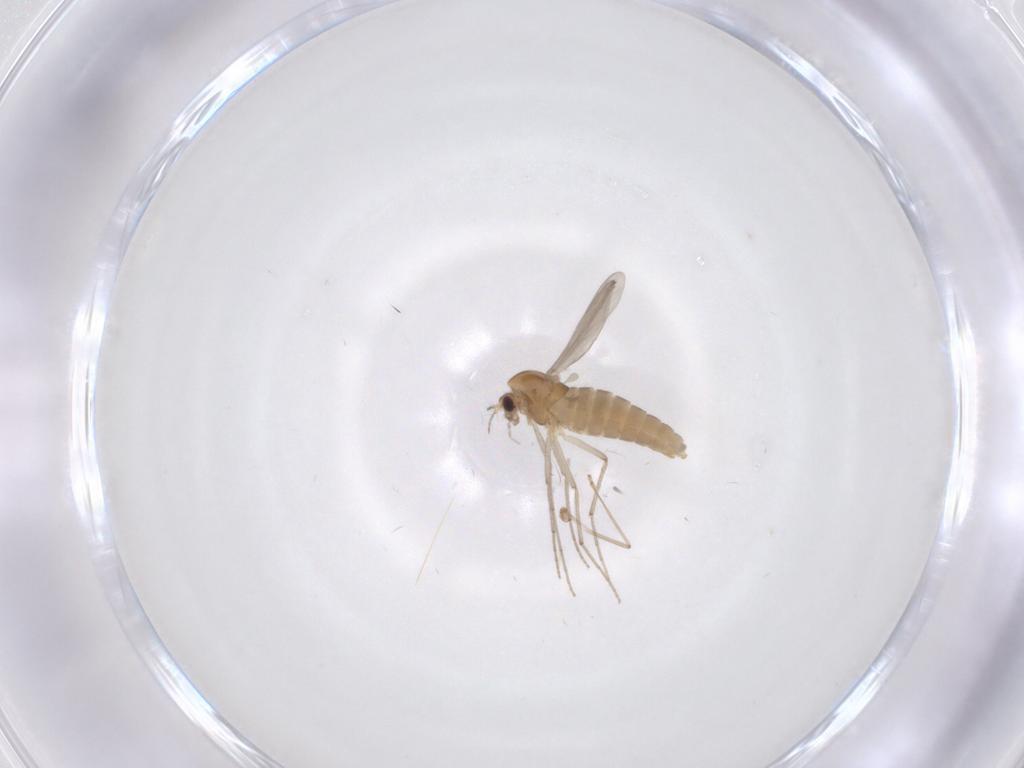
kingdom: Animalia
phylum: Arthropoda
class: Insecta
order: Diptera
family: Chironomidae
